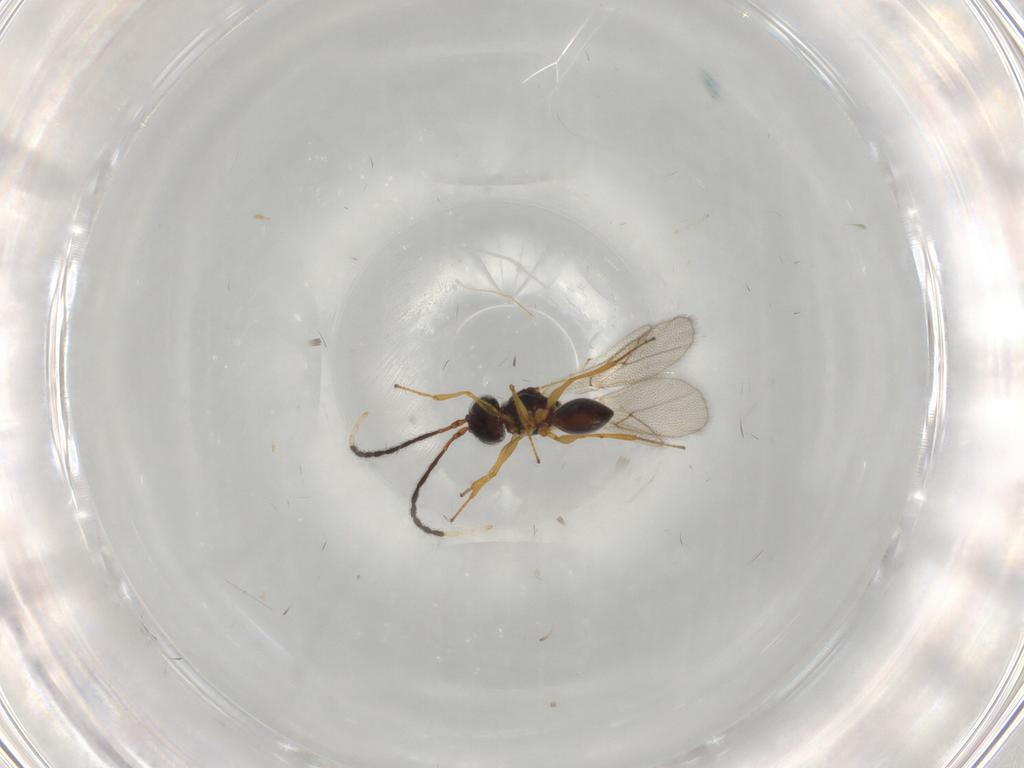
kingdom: Animalia
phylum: Arthropoda
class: Insecta
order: Hymenoptera
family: Figitidae
